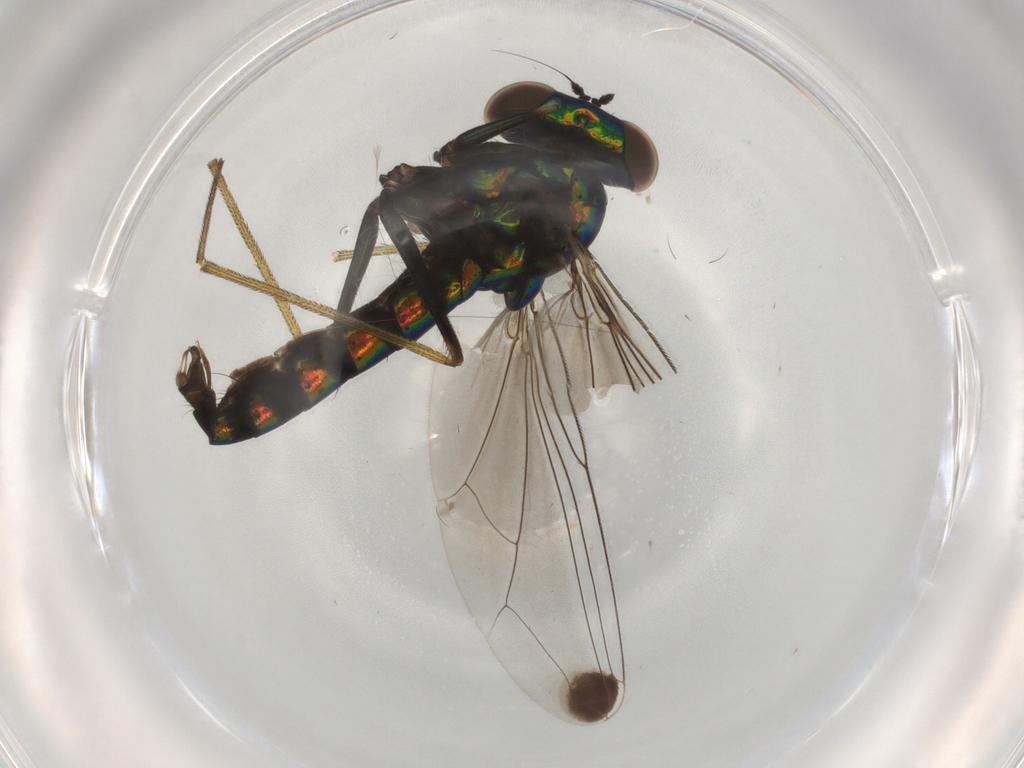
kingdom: Animalia
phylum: Arthropoda
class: Insecta
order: Diptera
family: Dolichopodidae
